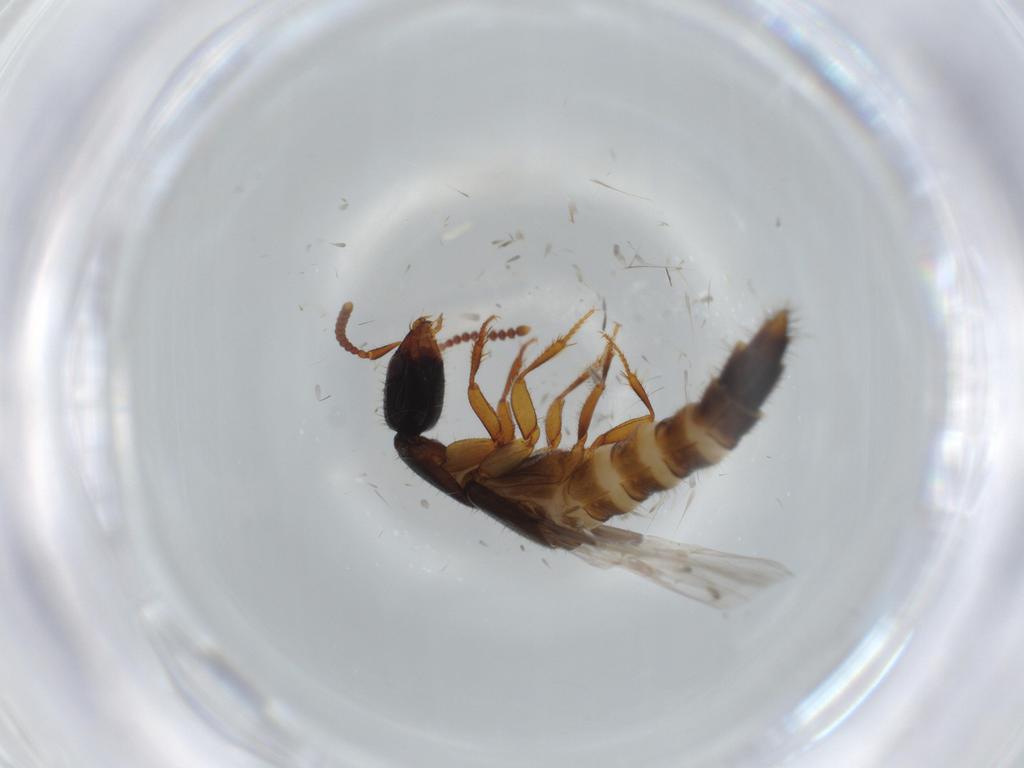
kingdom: Animalia
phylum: Arthropoda
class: Insecta
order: Coleoptera
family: Staphylinidae
